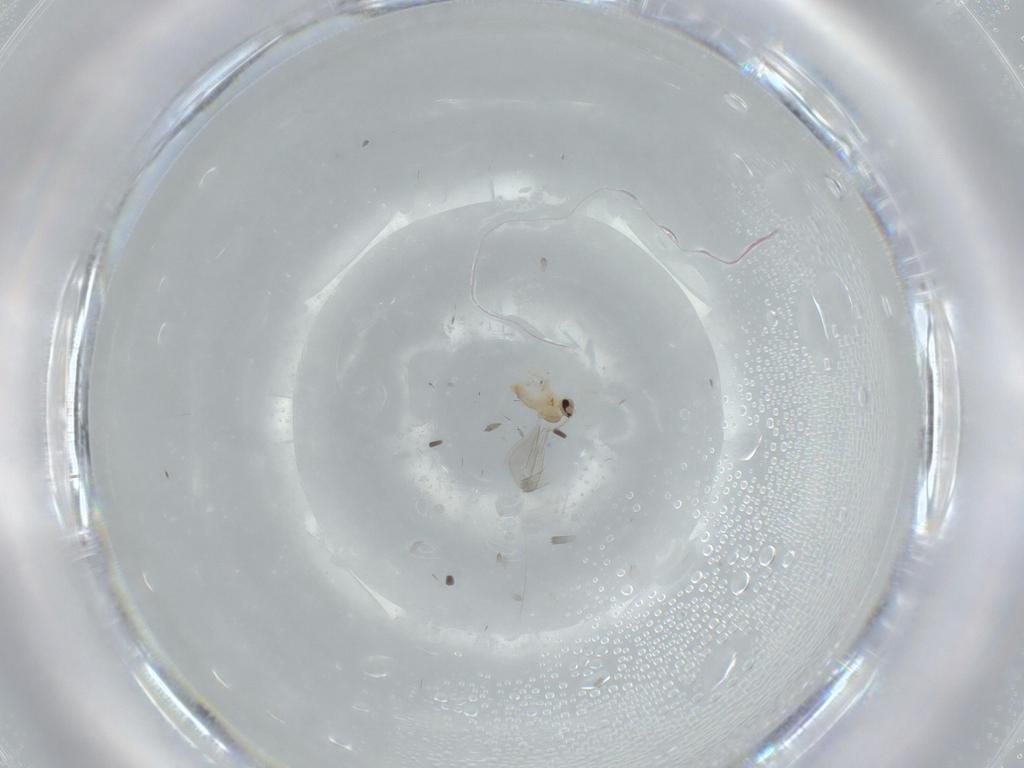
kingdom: Animalia
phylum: Arthropoda
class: Insecta
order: Diptera
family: Cecidomyiidae
